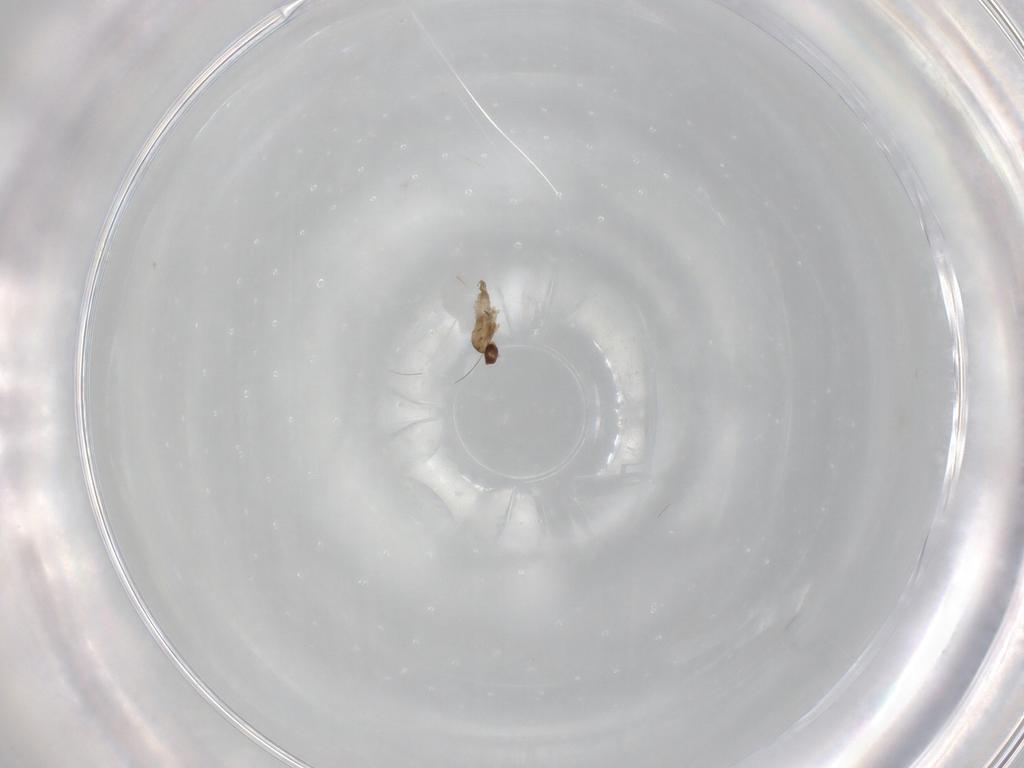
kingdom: Animalia
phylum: Arthropoda
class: Insecta
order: Diptera
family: Cecidomyiidae
